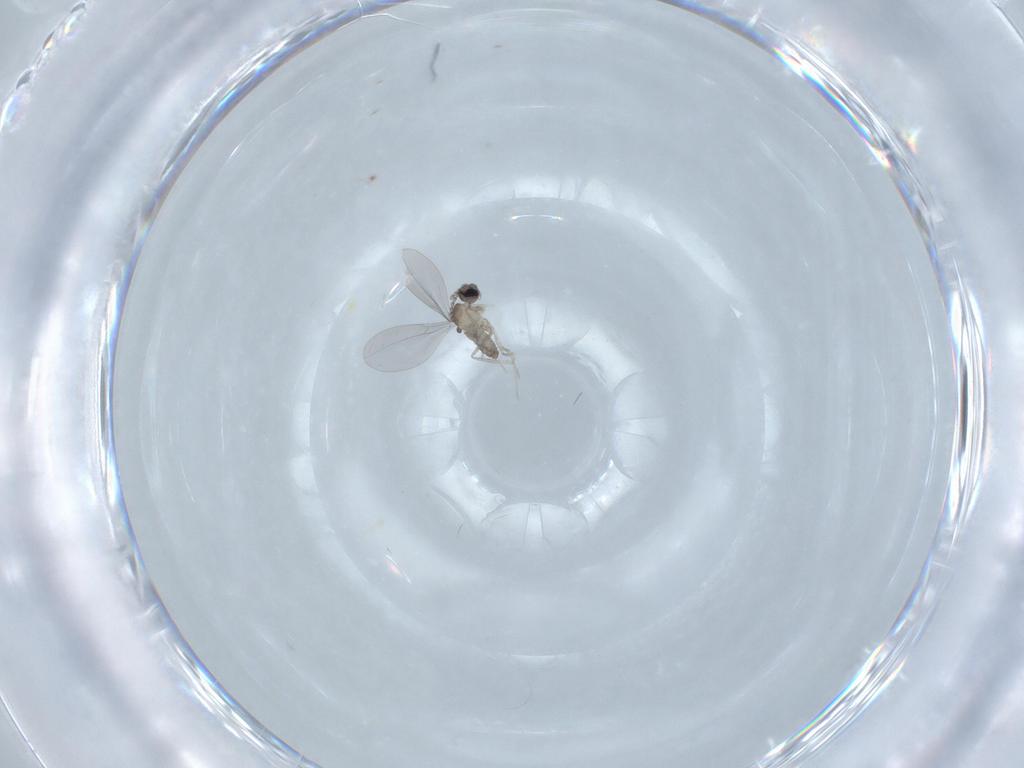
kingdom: Animalia
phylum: Arthropoda
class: Insecta
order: Diptera
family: Cecidomyiidae
